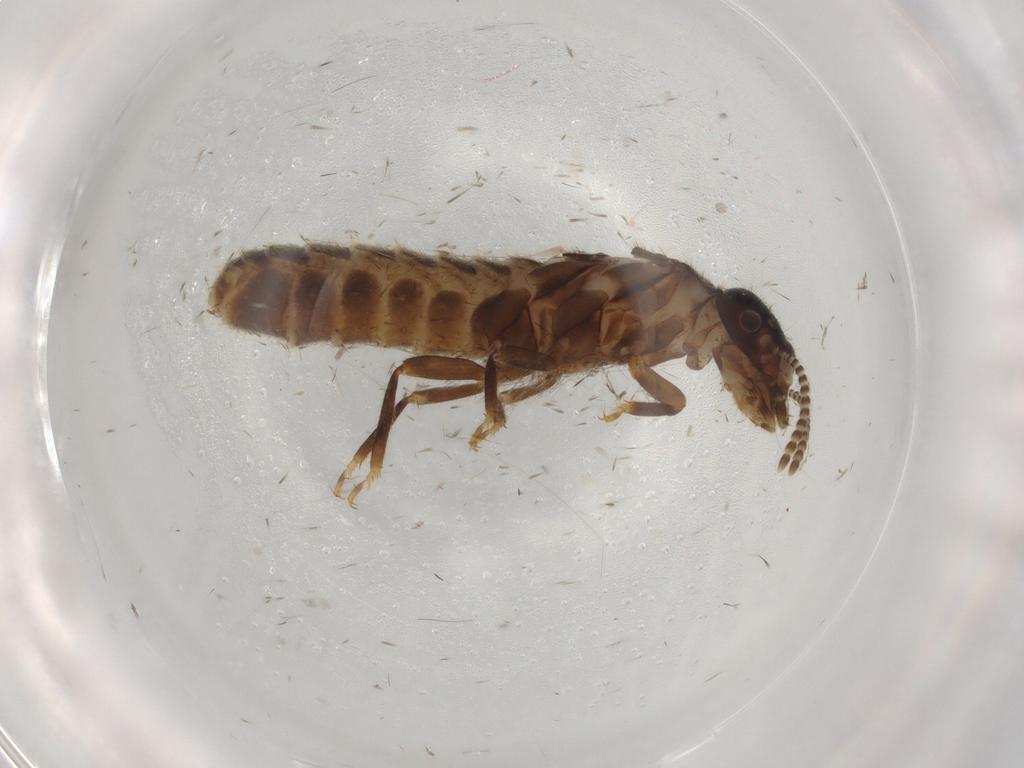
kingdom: Animalia
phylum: Arthropoda
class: Insecta
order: Blattodea
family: Termitidae
